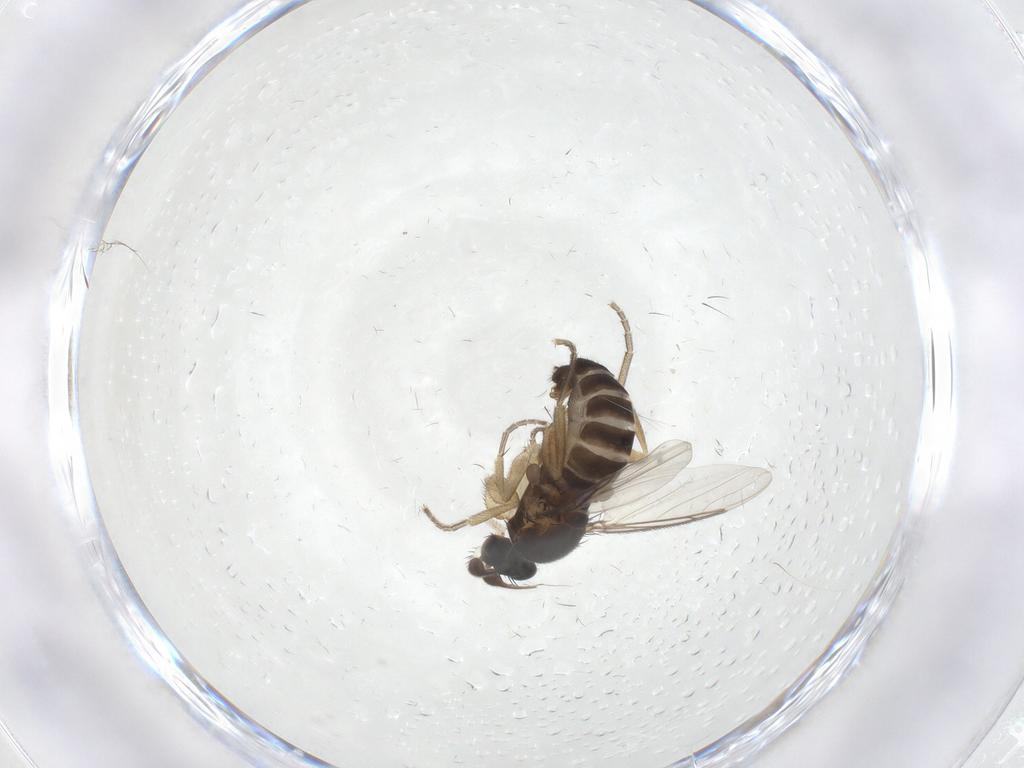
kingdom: Animalia
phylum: Arthropoda
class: Insecta
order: Diptera
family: Phoridae
